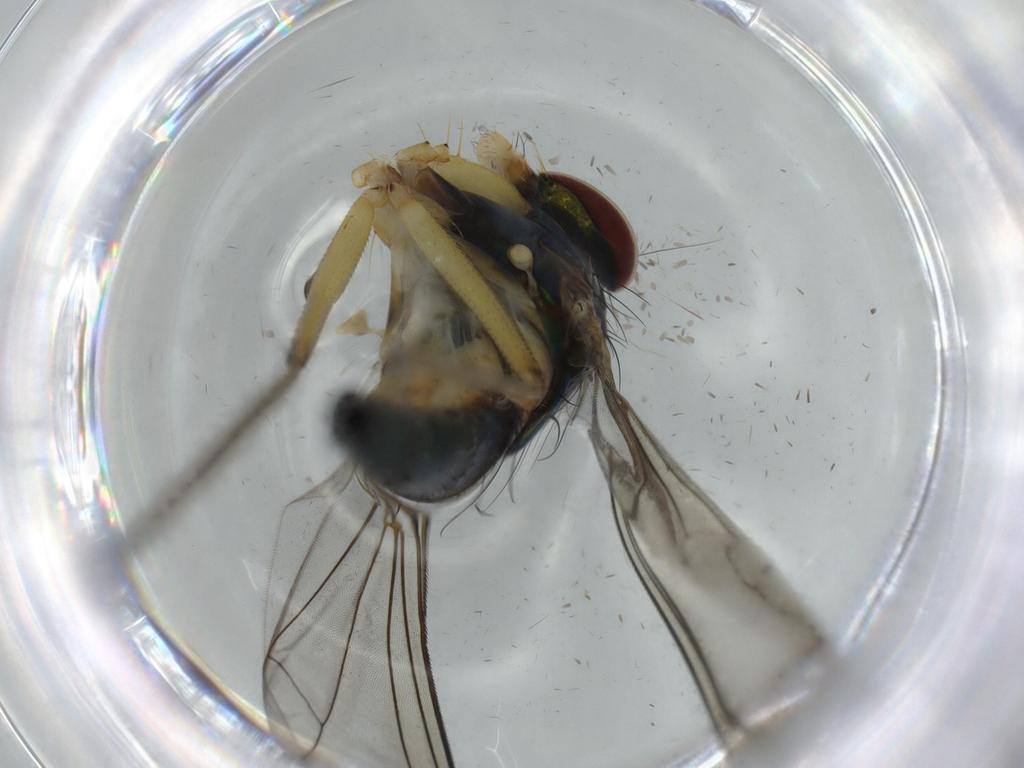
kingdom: Animalia
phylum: Arthropoda
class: Insecta
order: Diptera
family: Dolichopodidae
